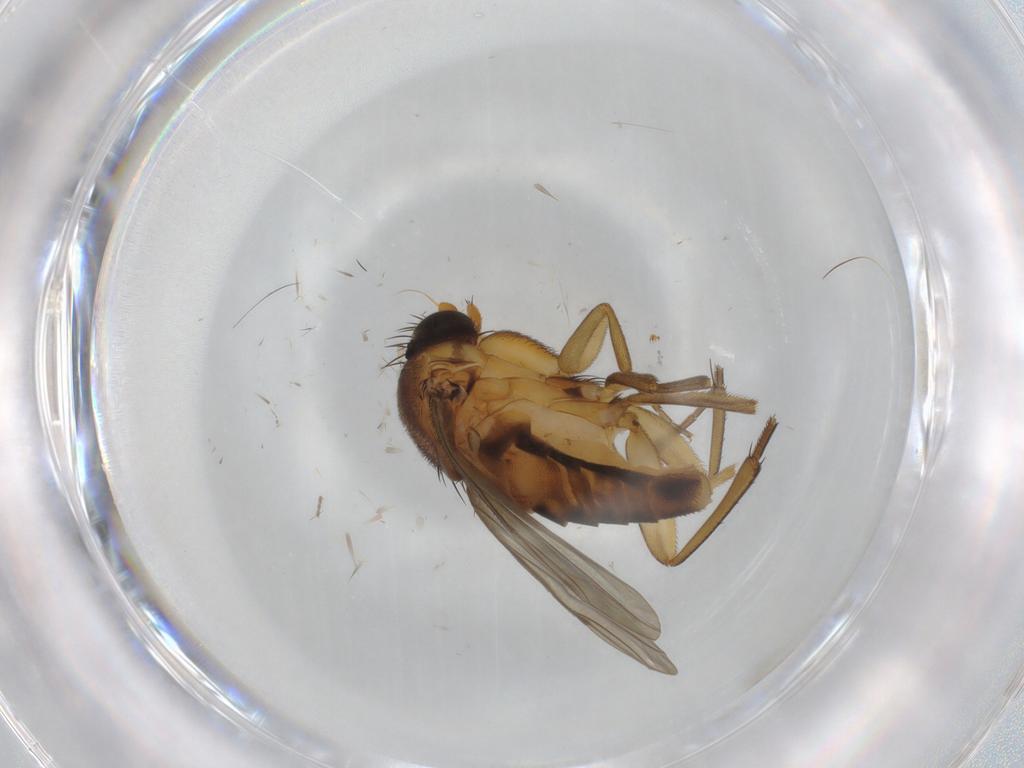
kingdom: Animalia
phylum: Arthropoda
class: Insecta
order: Diptera
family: Phoridae
